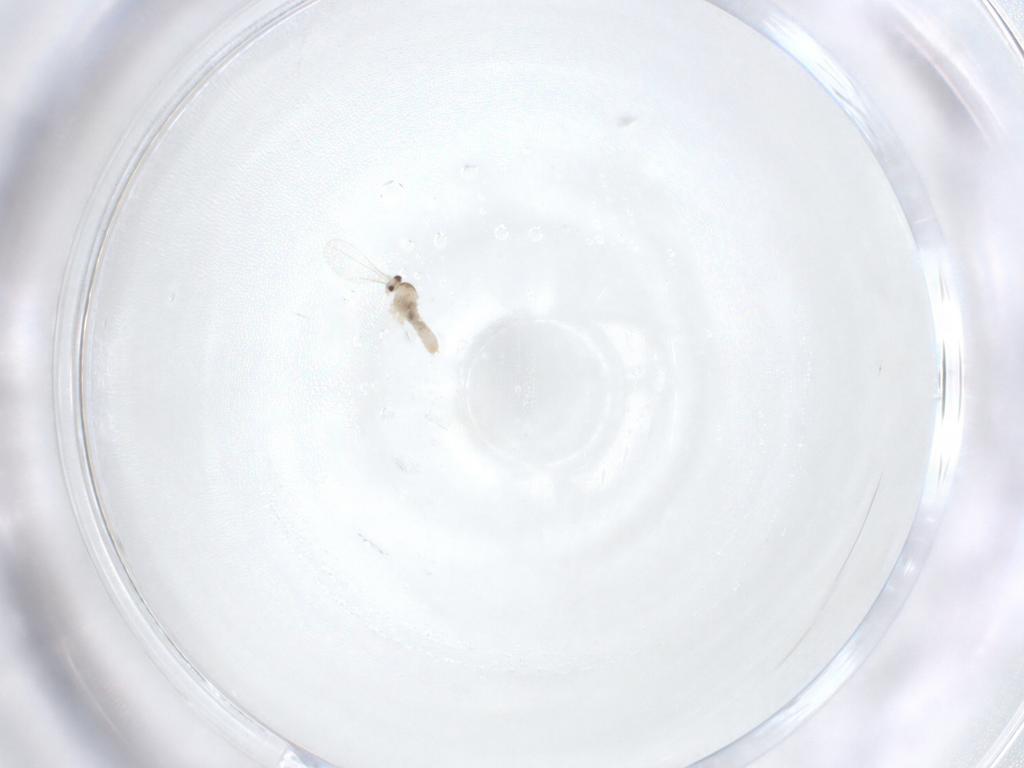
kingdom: Animalia
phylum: Arthropoda
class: Insecta
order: Diptera
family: Cecidomyiidae
